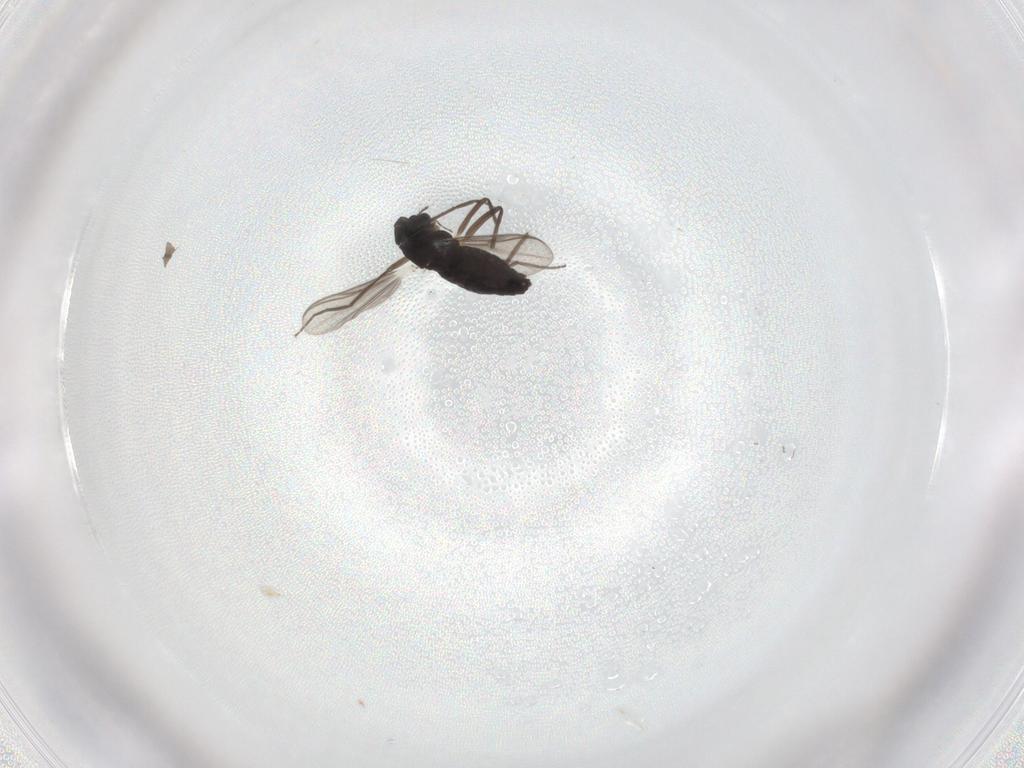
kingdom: Animalia
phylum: Arthropoda
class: Insecta
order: Diptera
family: Chironomidae
